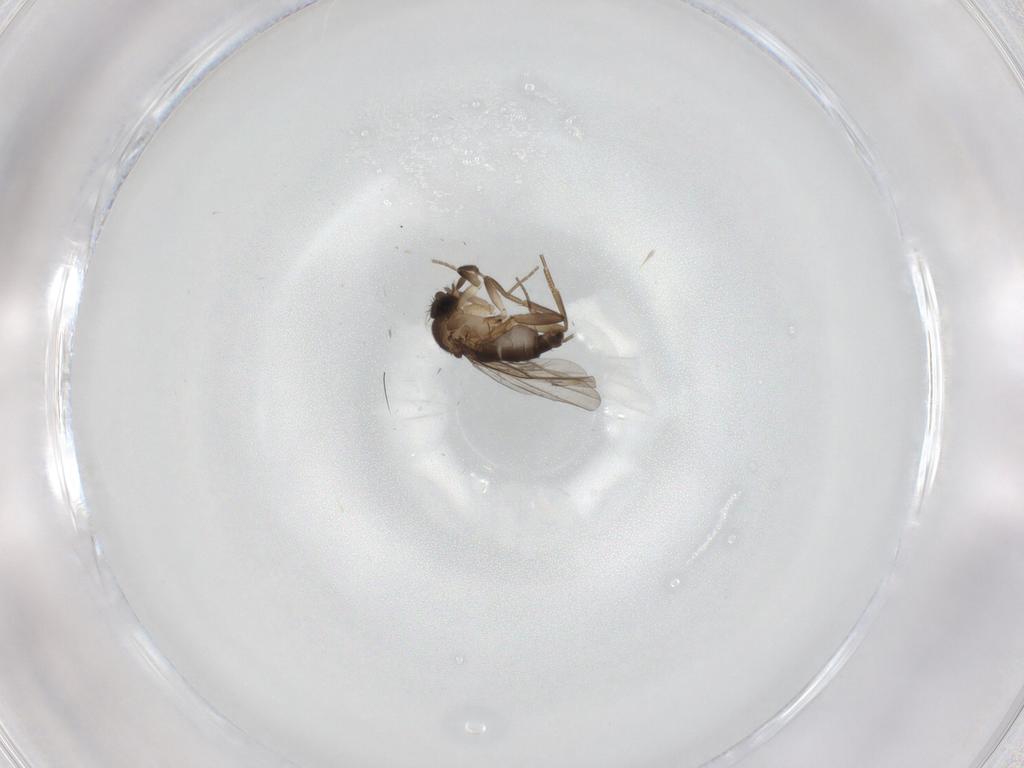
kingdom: Animalia
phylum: Arthropoda
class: Insecta
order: Diptera
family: Phoridae
